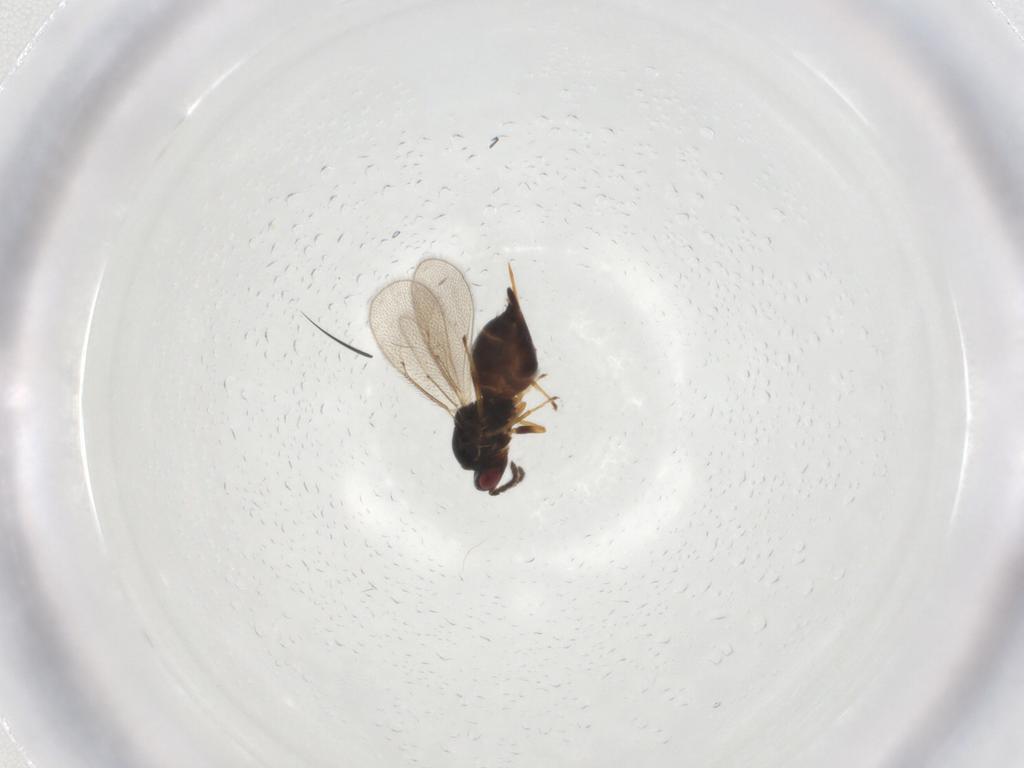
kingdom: Animalia
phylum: Arthropoda
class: Insecta
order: Hymenoptera
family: Eulophidae
